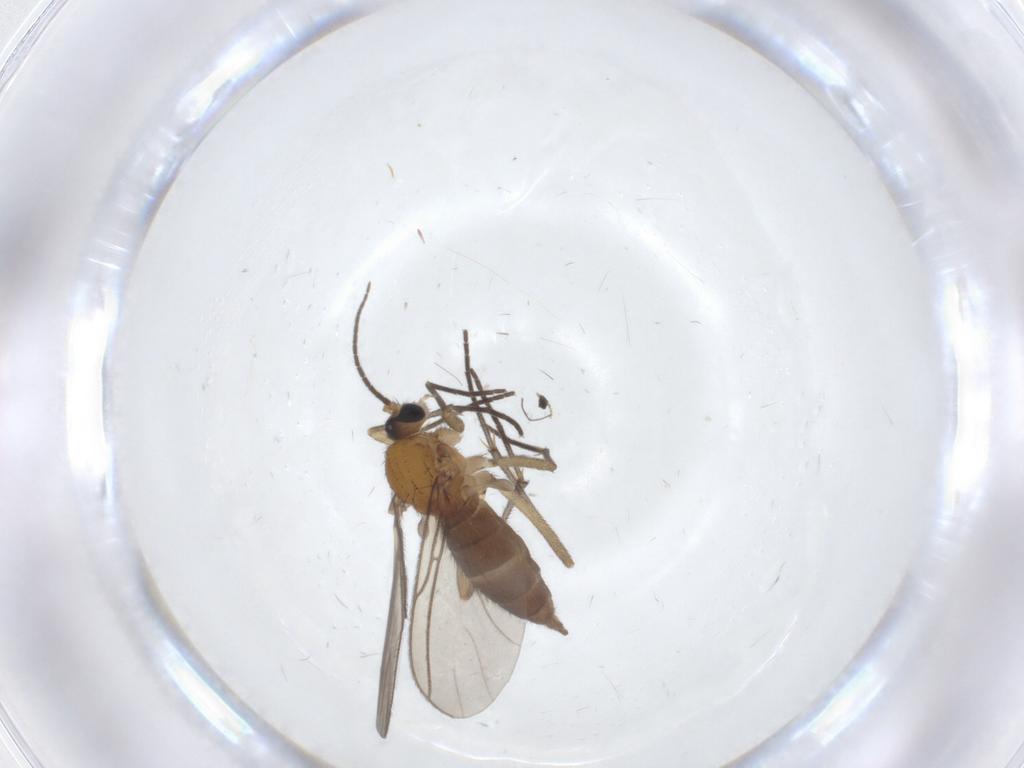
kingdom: Animalia
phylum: Arthropoda
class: Insecta
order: Diptera
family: Sciaridae
